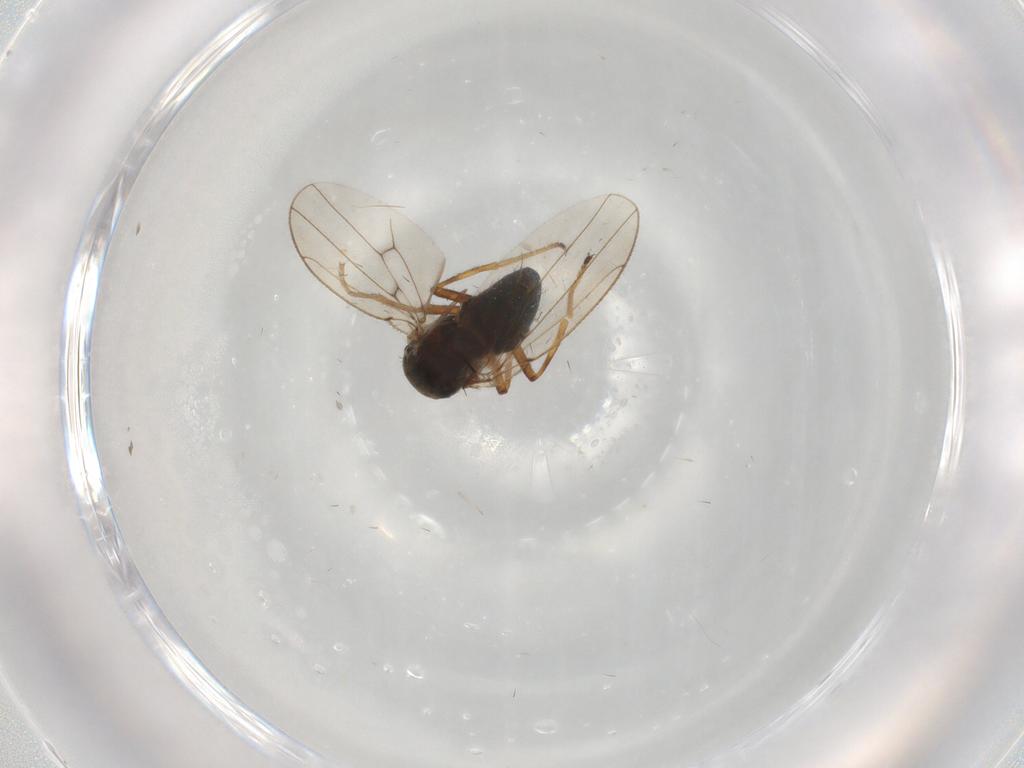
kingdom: Animalia
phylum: Arthropoda
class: Insecta
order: Diptera
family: Ephydridae
